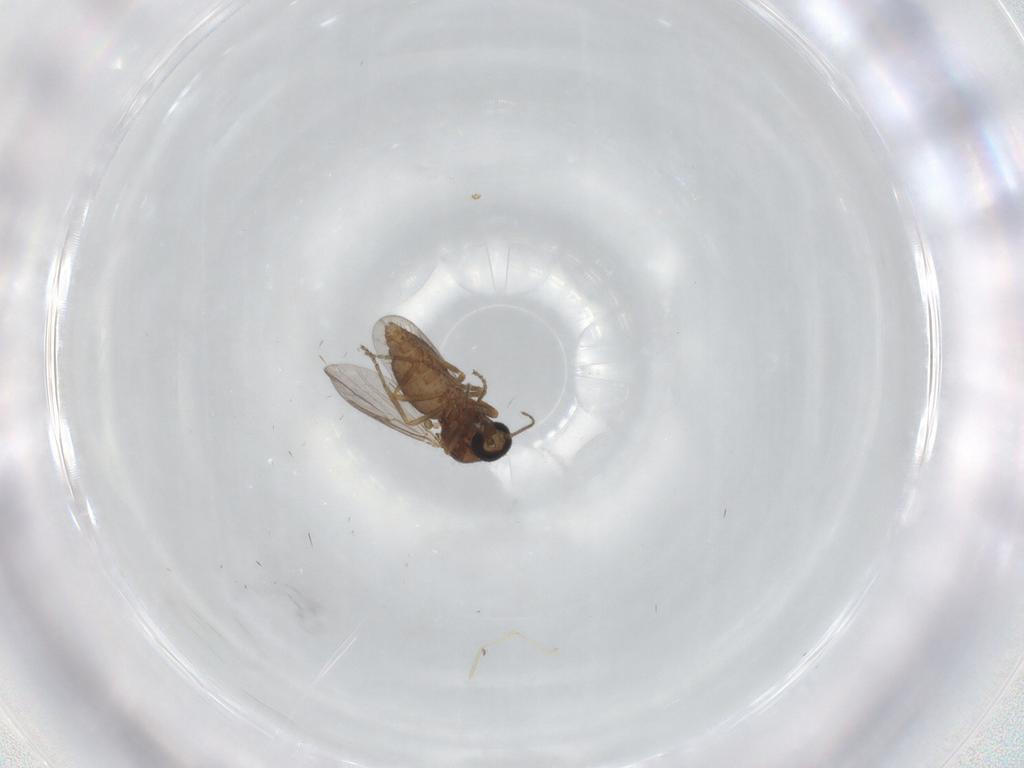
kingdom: Animalia
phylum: Arthropoda
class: Insecta
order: Diptera
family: Ceratopogonidae
